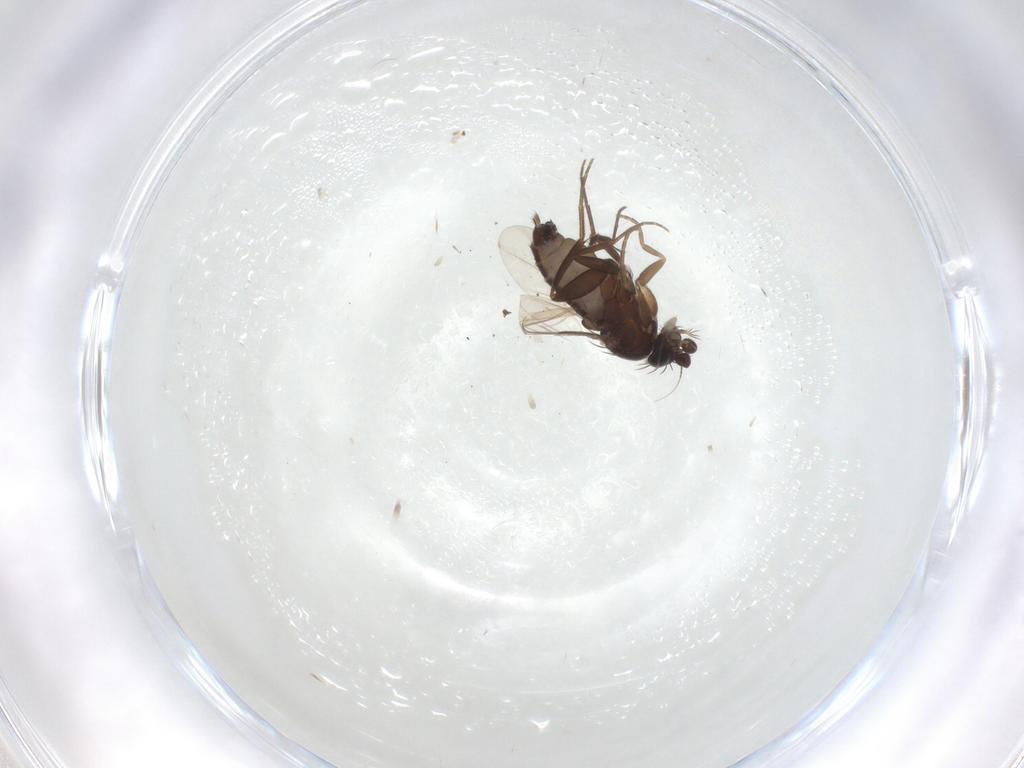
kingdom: Animalia
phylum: Arthropoda
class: Insecta
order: Diptera
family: Phoridae
